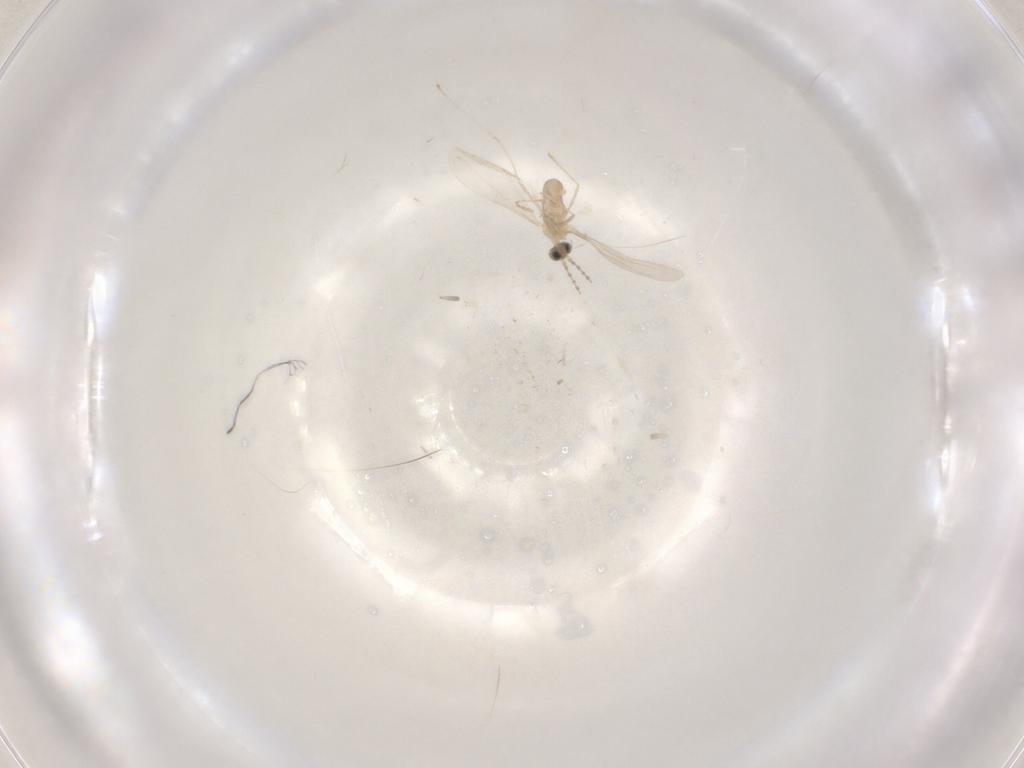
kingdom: Animalia
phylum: Arthropoda
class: Insecta
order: Diptera
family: Cecidomyiidae
